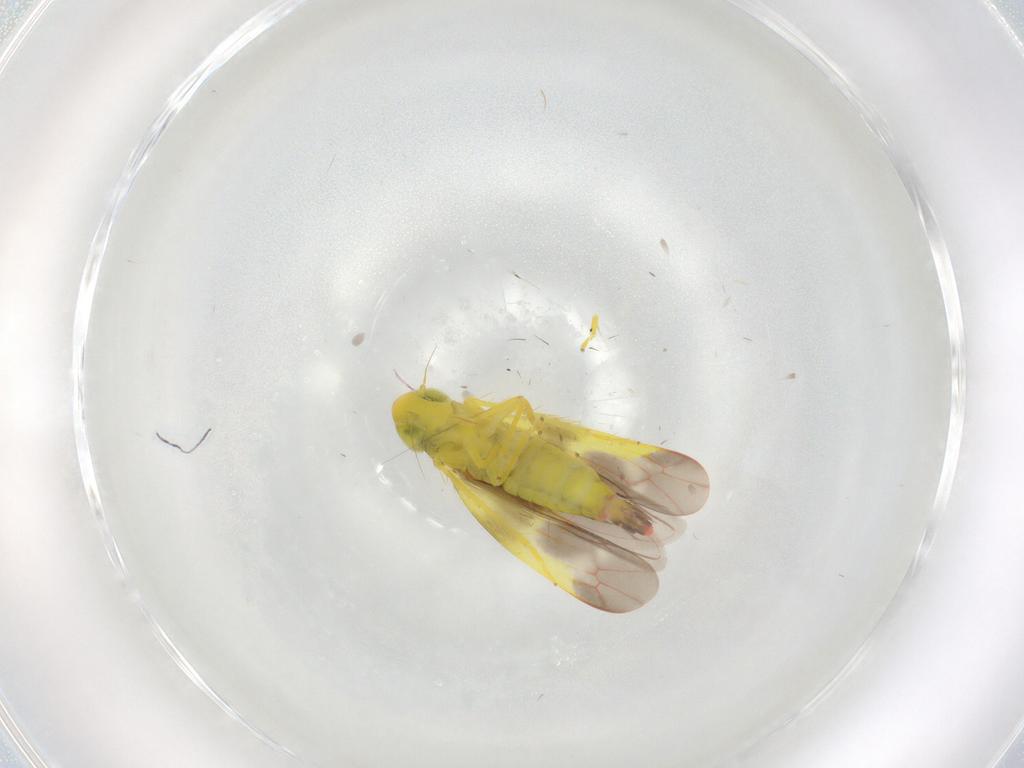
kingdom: Animalia
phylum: Arthropoda
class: Insecta
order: Hemiptera
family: Cicadellidae
